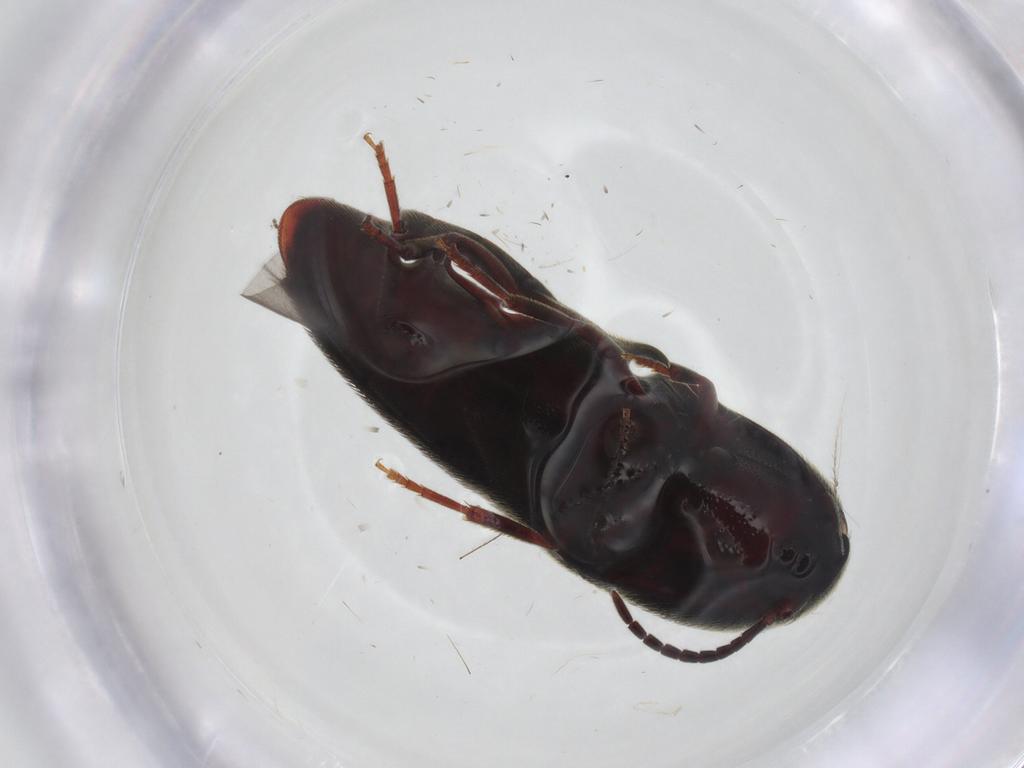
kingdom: Animalia
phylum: Arthropoda
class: Insecta
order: Coleoptera
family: Eucnemidae
